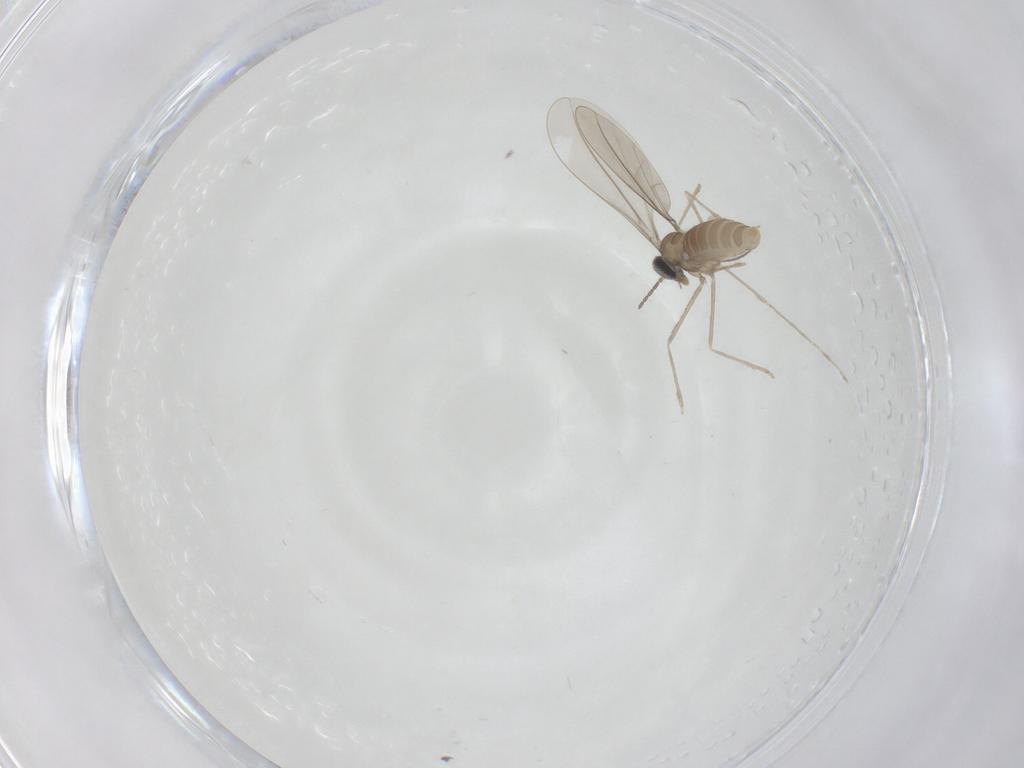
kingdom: Animalia
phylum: Arthropoda
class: Insecta
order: Diptera
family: Cecidomyiidae
